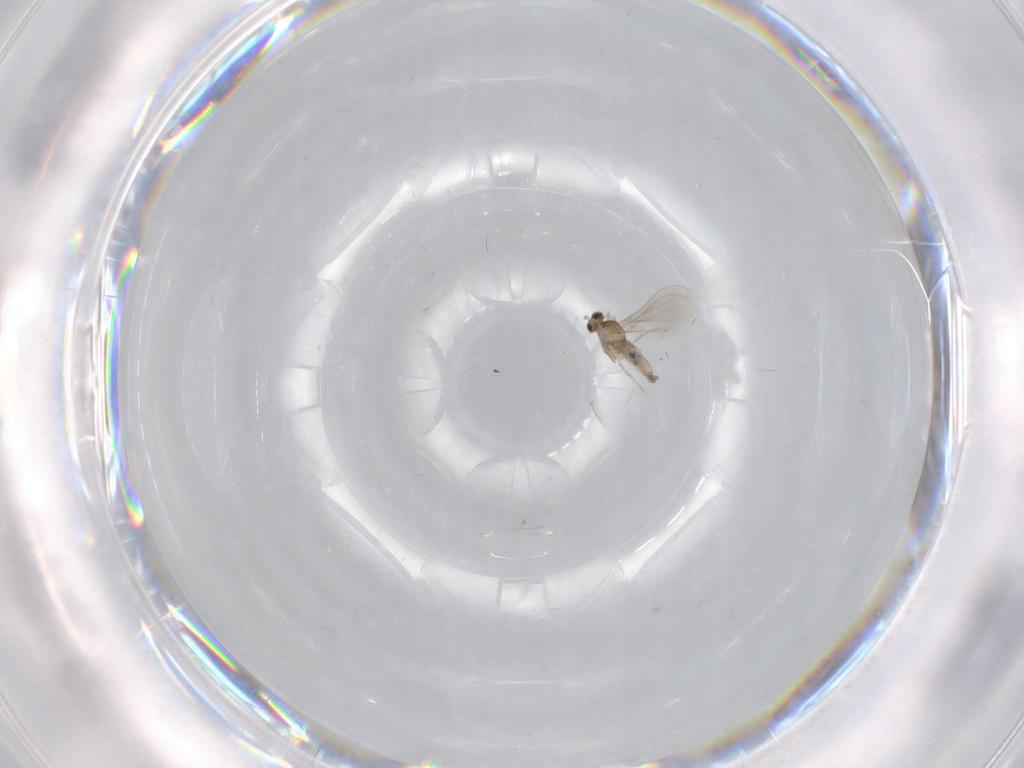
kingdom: Animalia
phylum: Arthropoda
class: Insecta
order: Diptera
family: Cecidomyiidae
